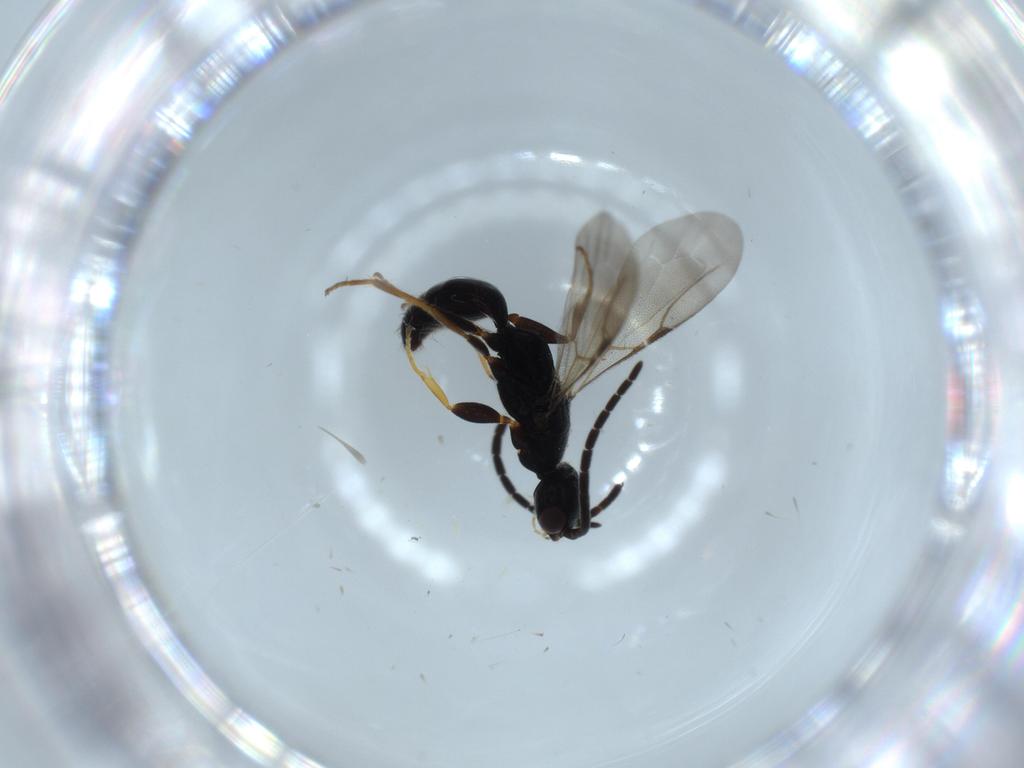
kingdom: Animalia
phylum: Arthropoda
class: Insecta
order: Hymenoptera
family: Bethylidae
